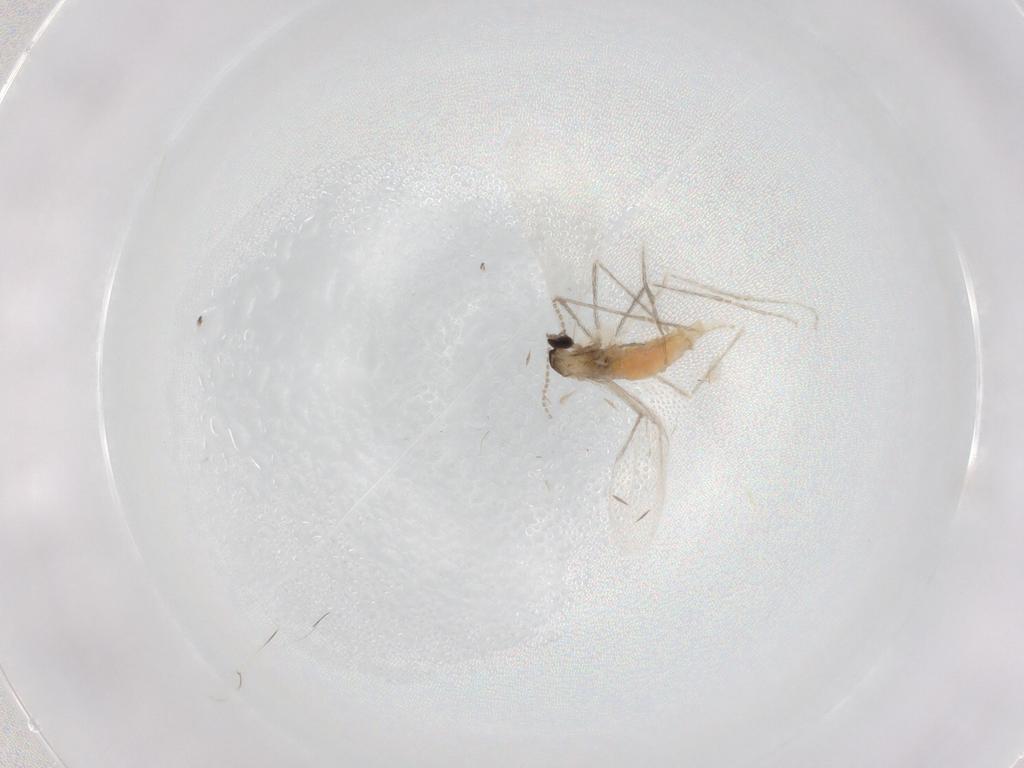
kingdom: Animalia
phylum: Arthropoda
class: Insecta
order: Diptera
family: Cecidomyiidae
